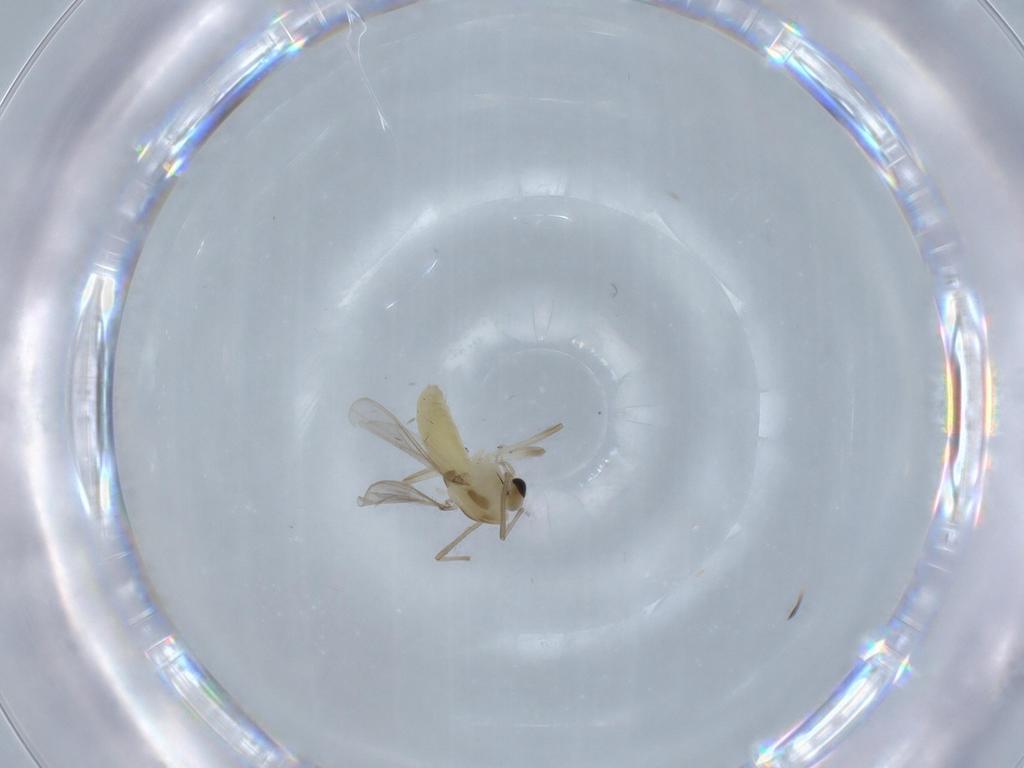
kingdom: Animalia
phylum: Arthropoda
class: Insecta
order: Diptera
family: Chironomidae
